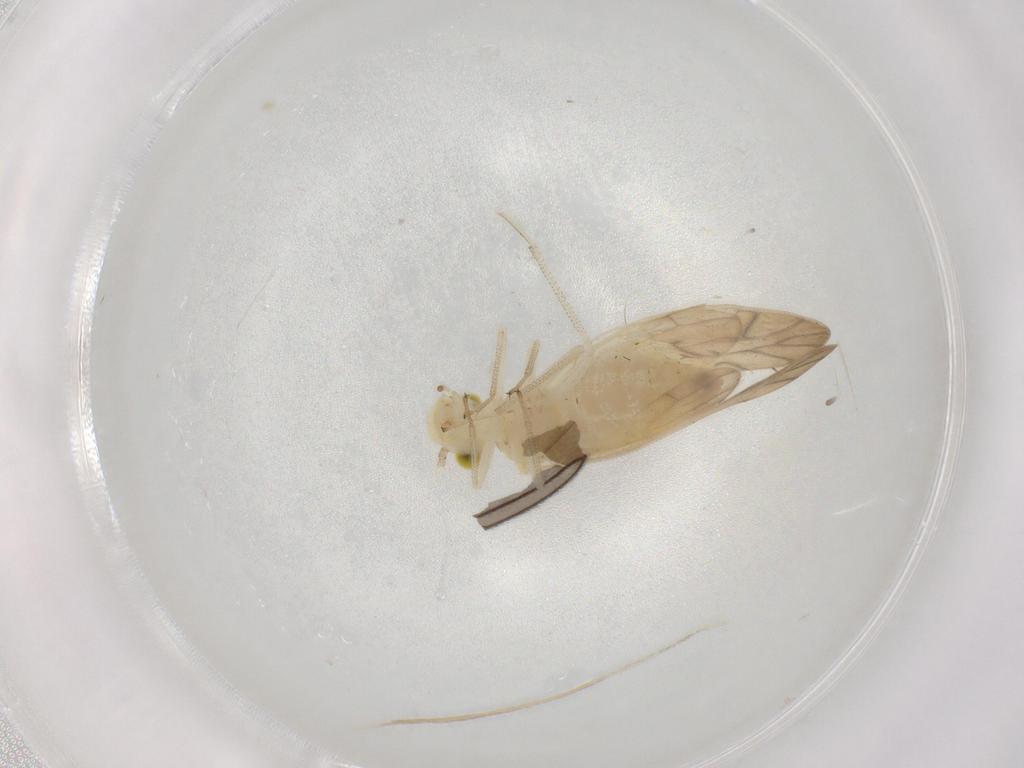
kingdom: Animalia
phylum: Arthropoda
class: Insecta
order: Psocodea
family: Caeciliusidae
